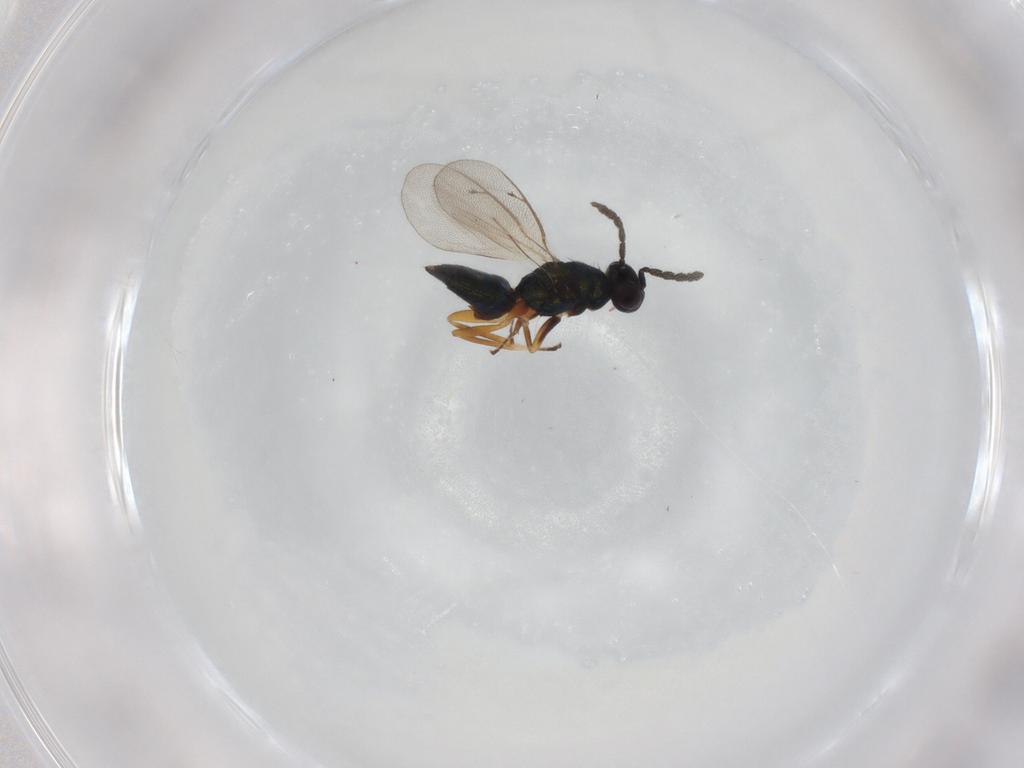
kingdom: Animalia
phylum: Arthropoda
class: Insecta
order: Hymenoptera
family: Eulophidae
